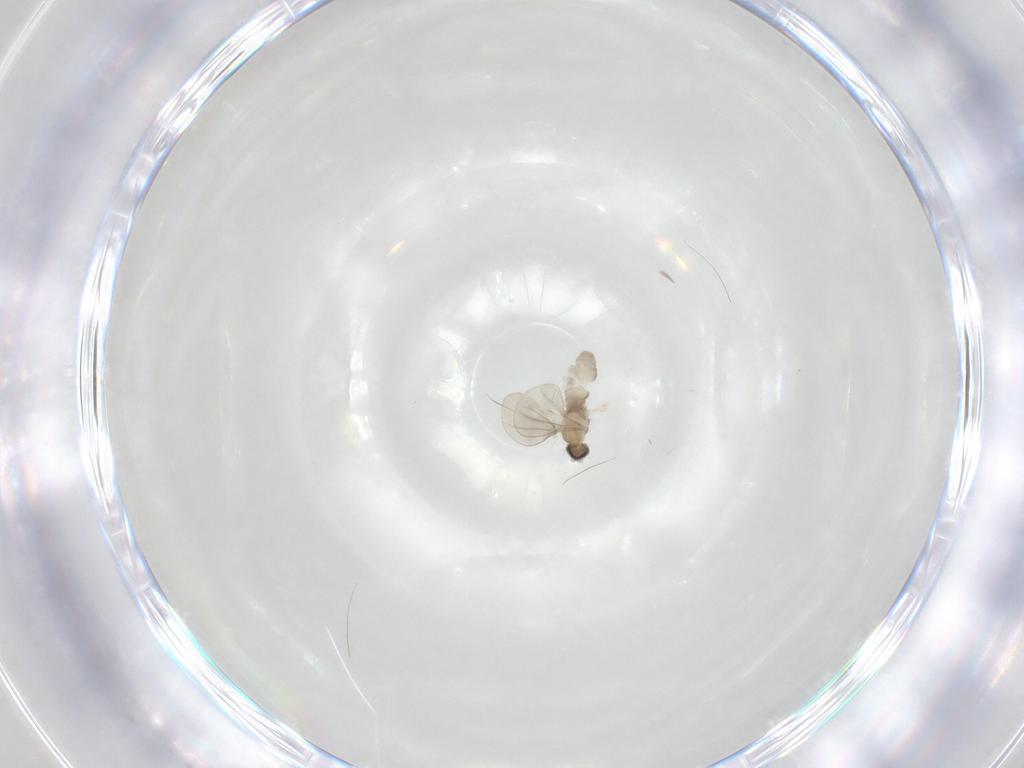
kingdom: Animalia
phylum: Arthropoda
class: Insecta
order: Diptera
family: Cecidomyiidae
